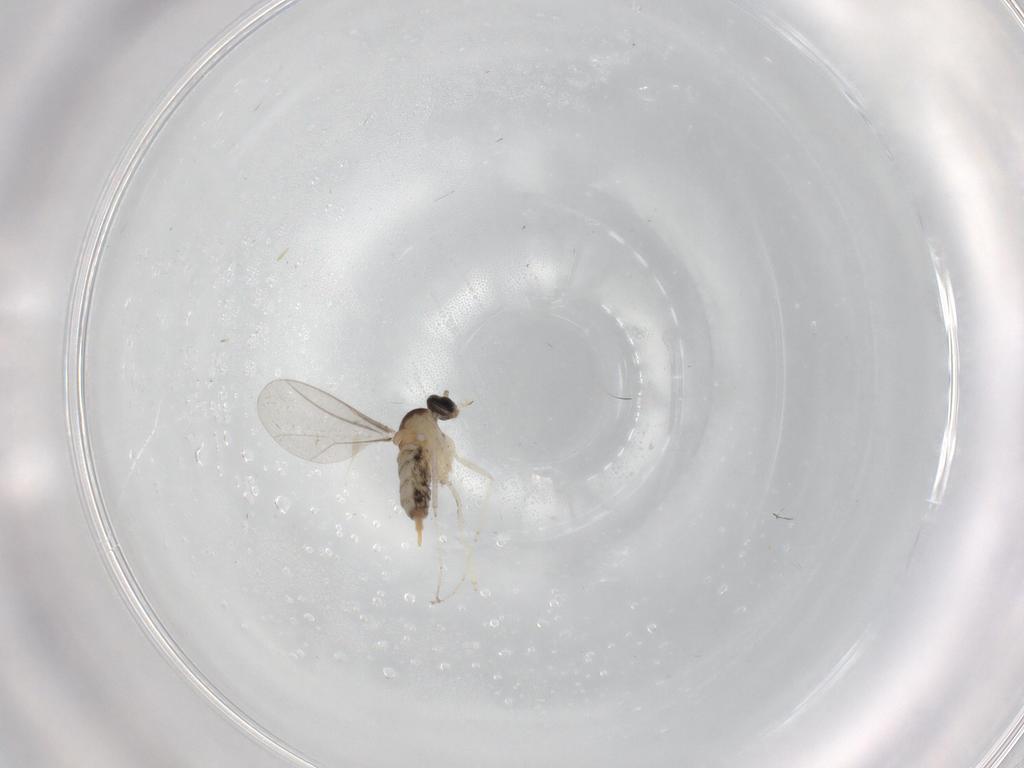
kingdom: Animalia
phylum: Arthropoda
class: Insecta
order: Diptera
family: Cecidomyiidae
